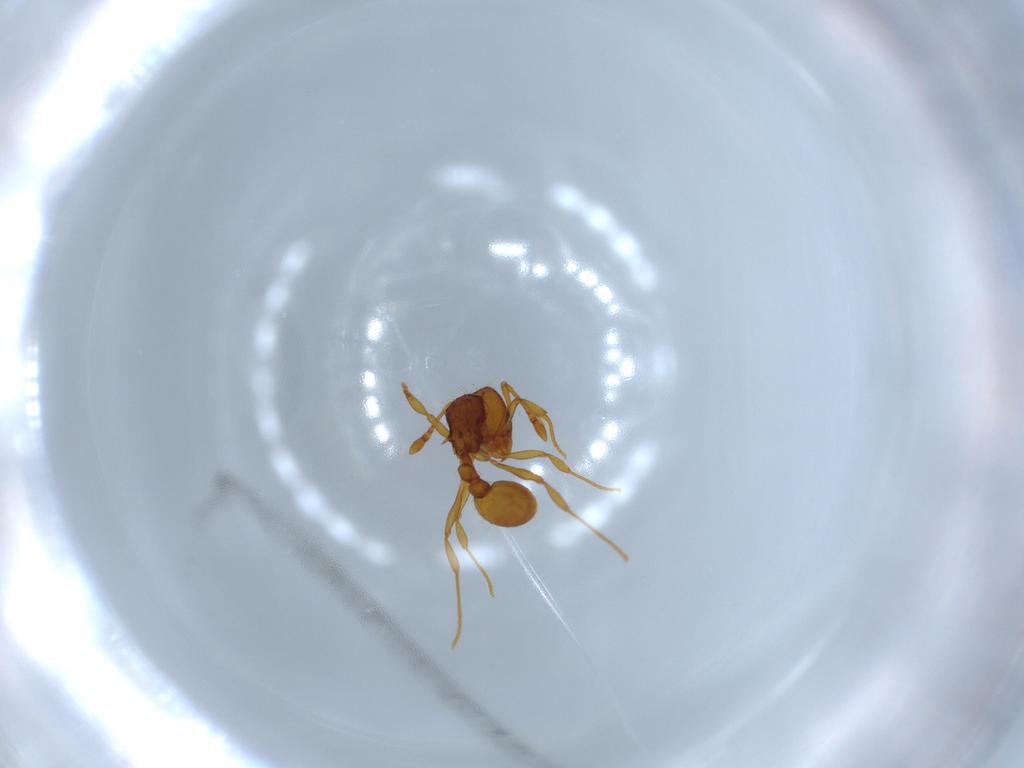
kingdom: Animalia
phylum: Arthropoda
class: Insecta
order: Hymenoptera
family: Formicidae
